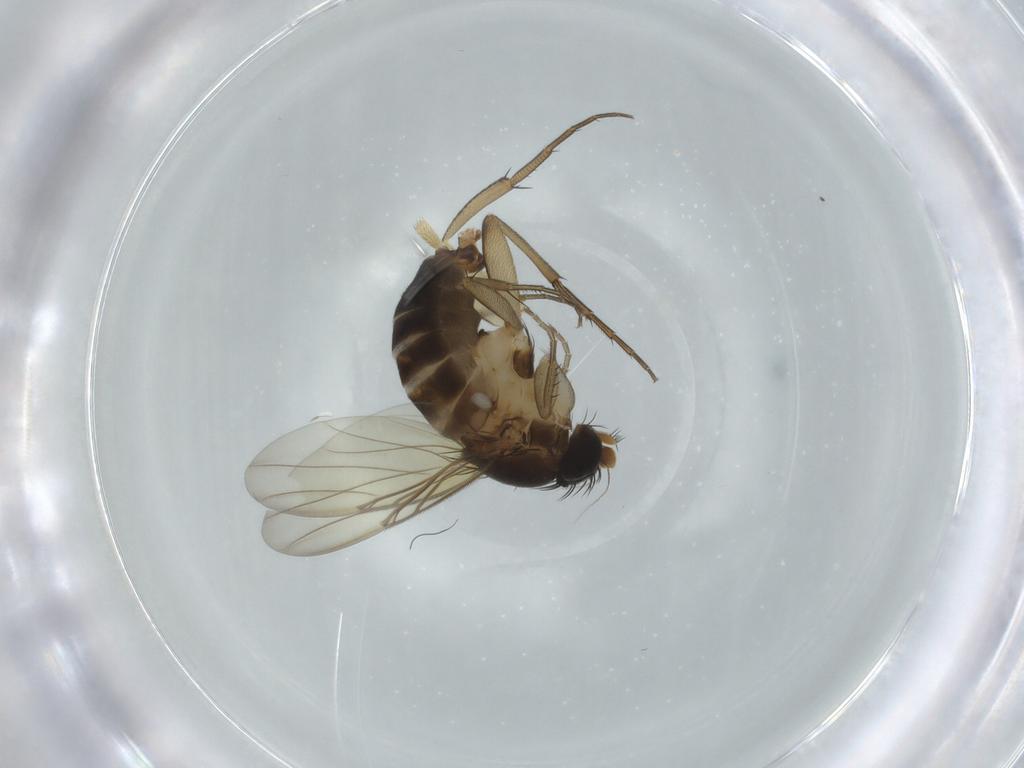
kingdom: Animalia
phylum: Arthropoda
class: Insecta
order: Diptera
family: Phoridae
